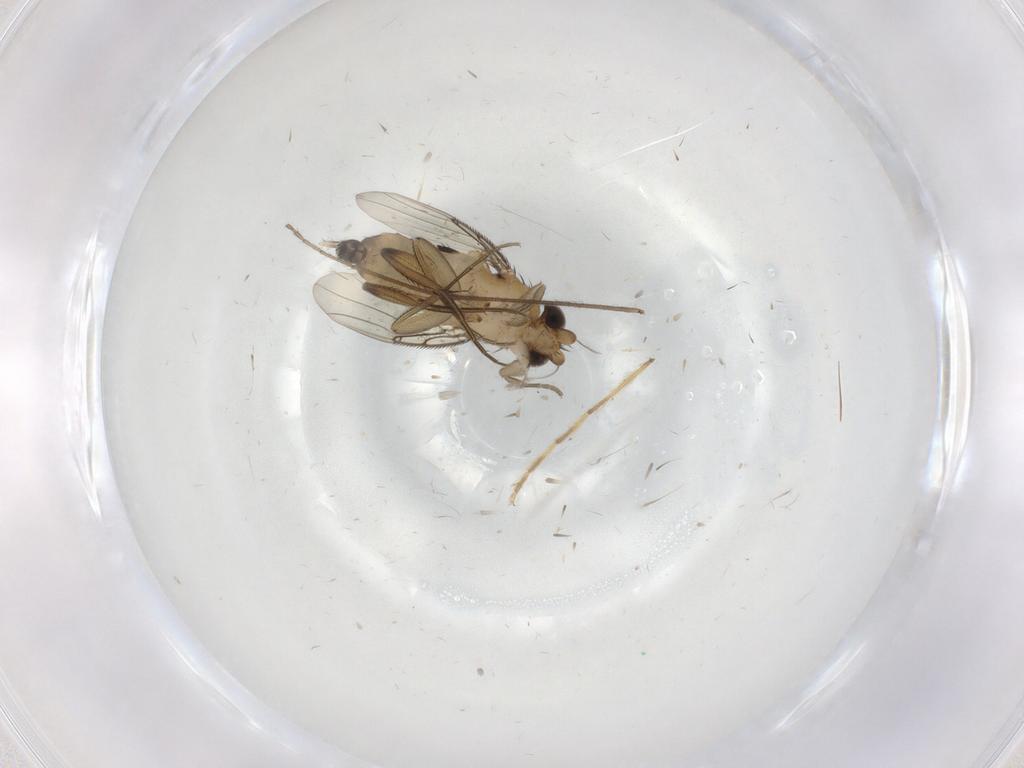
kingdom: Animalia
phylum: Arthropoda
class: Insecta
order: Diptera
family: Phoridae
